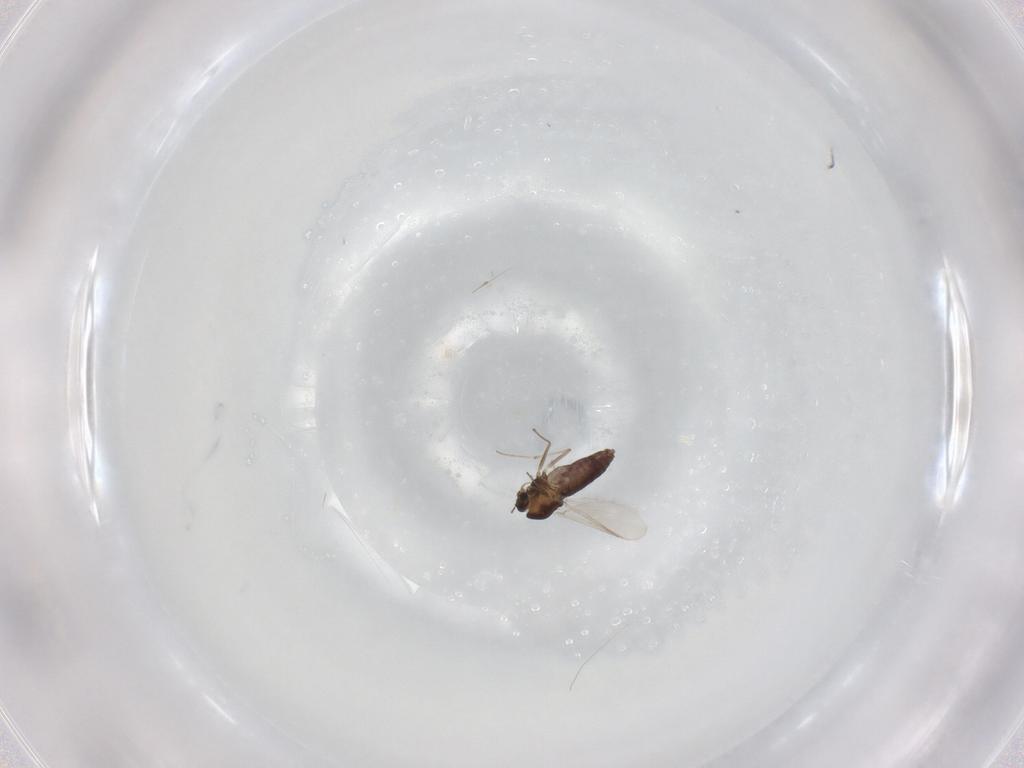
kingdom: Animalia
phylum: Arthropoda
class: Insecta
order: Diptera
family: Chironomidae
